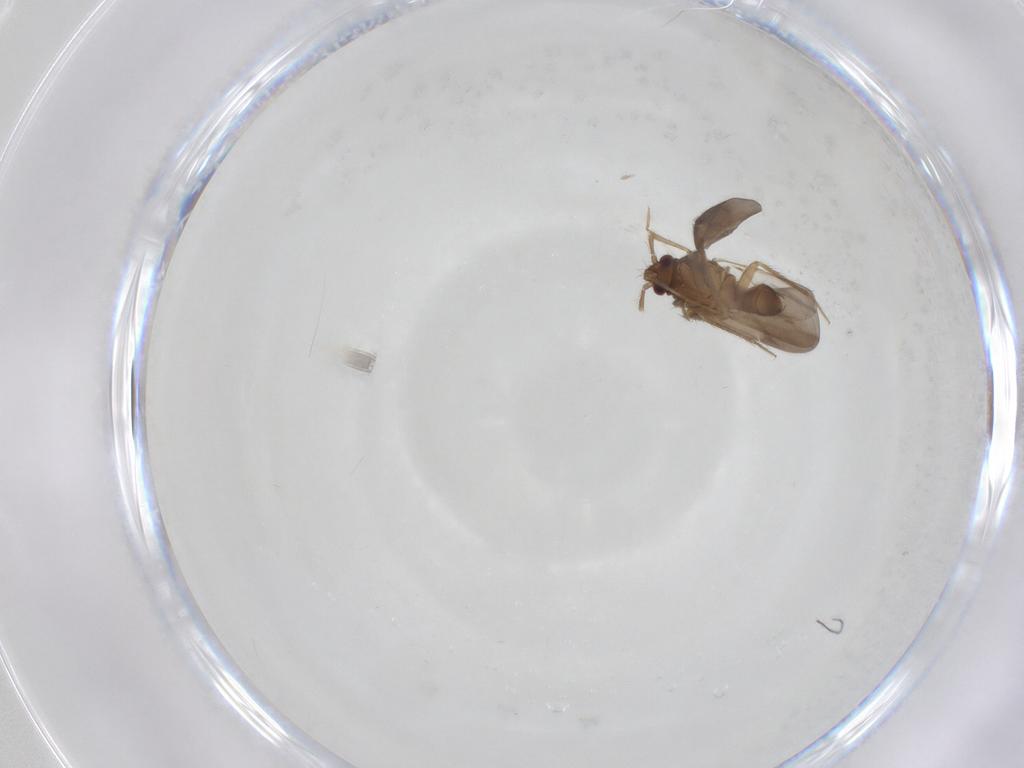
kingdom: Animalia
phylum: Arthropoda
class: Insecta
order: Hemiptera
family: Ceratocombidae
